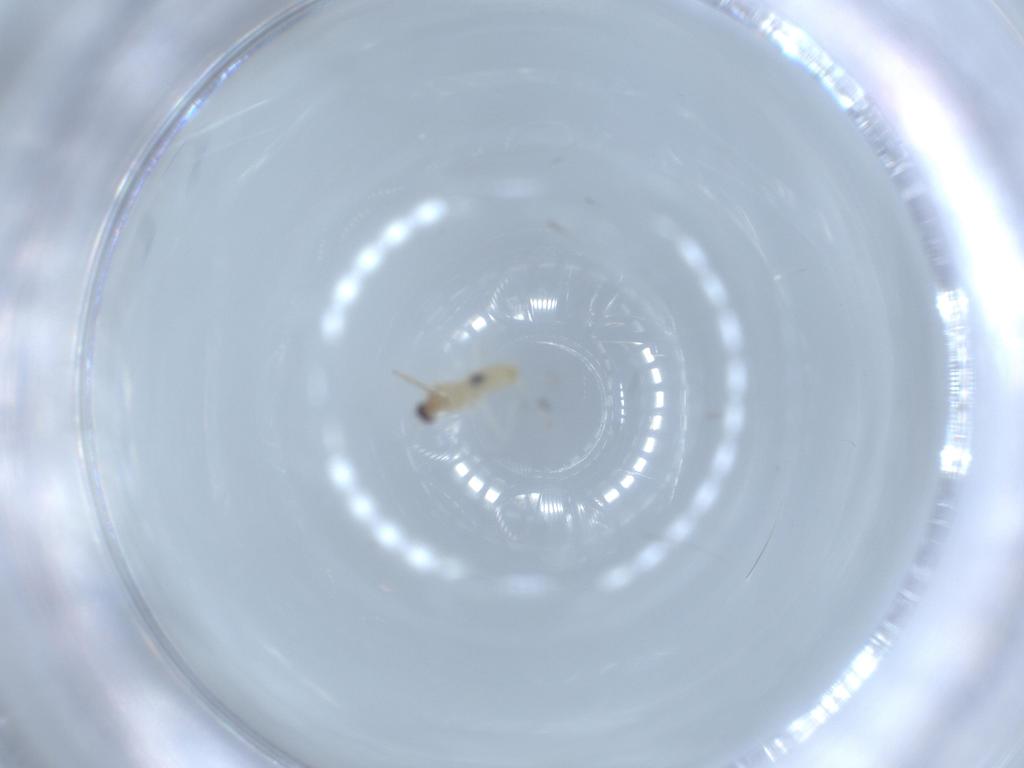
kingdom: Animalia
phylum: Arthropoda
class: Insecta
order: Diptera
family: Cecidomyiidae
